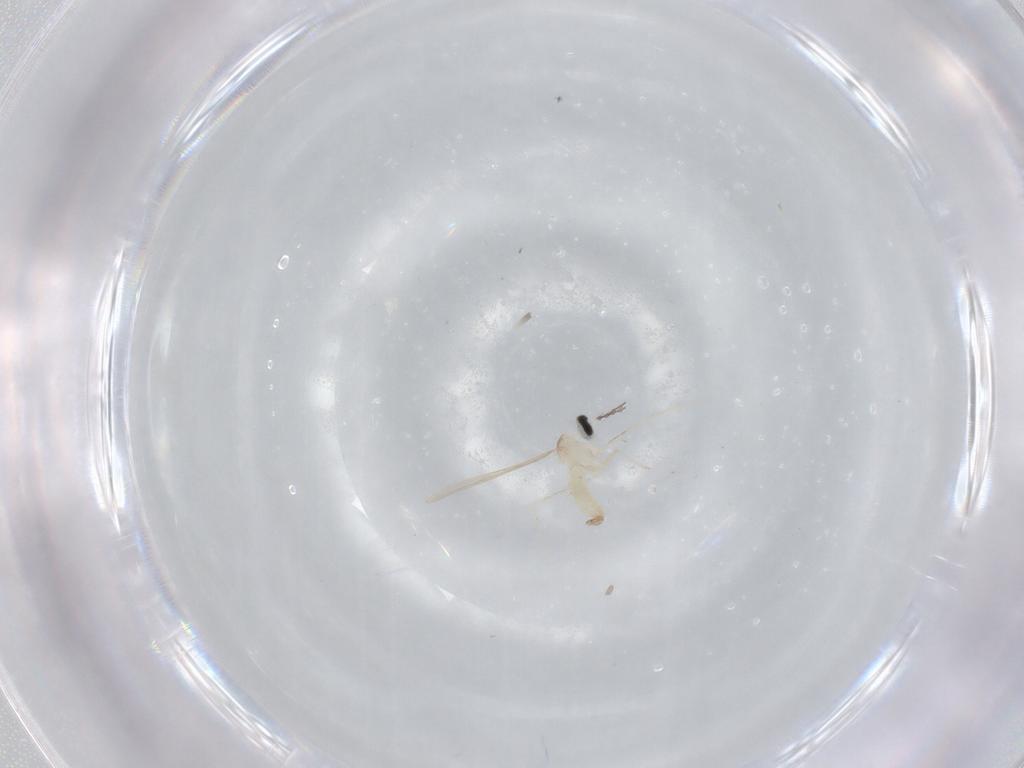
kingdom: Animalia
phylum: Arthropoda
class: Insecta
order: Diptera
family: Cecidomyiidae
